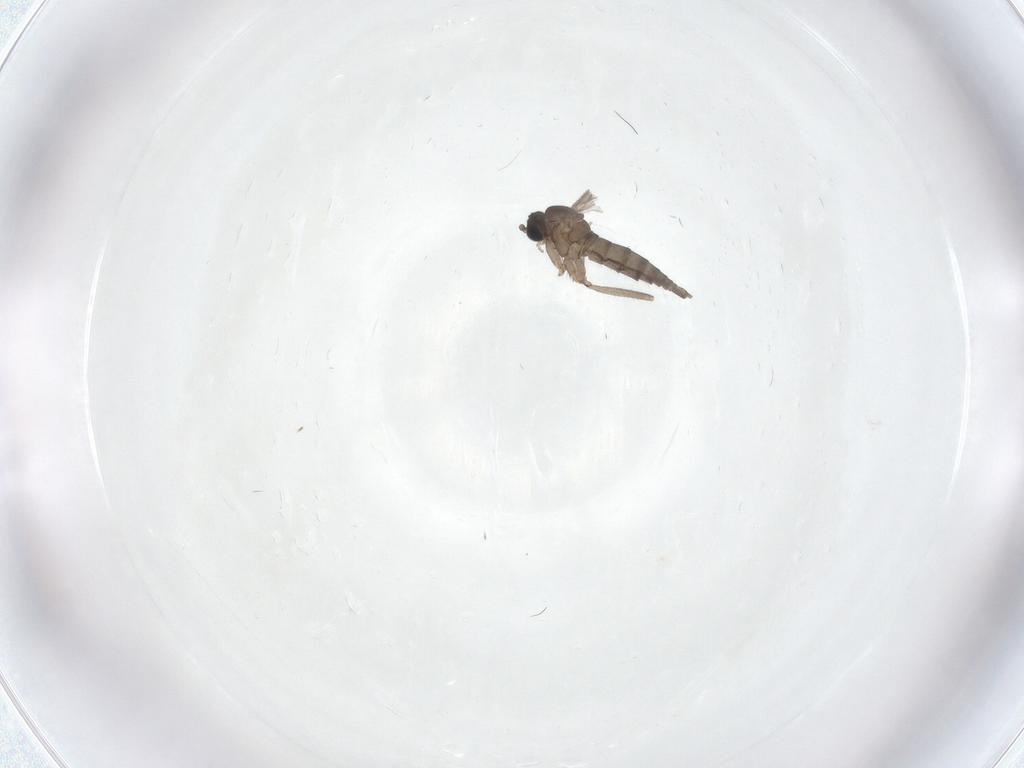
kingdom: Animalia
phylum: Arthropoda
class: Insecta
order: Diptera
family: Sciaridae
